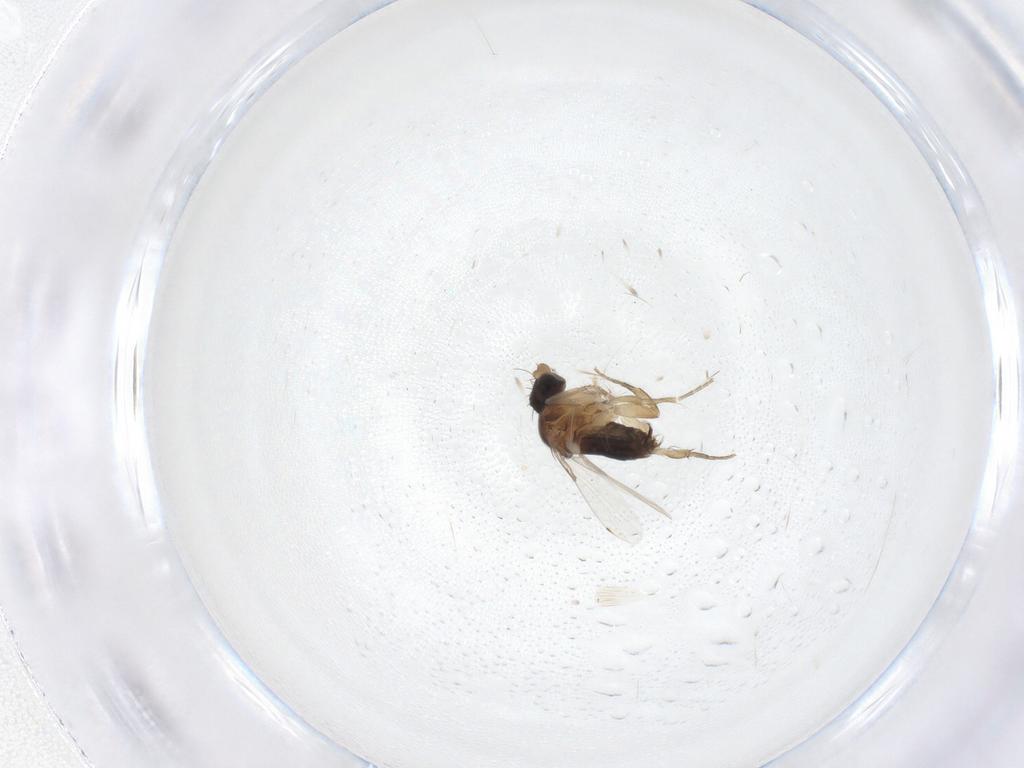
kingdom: Animalia
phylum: Arthropoda
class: Insecta
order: Diptera
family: Phoridae
